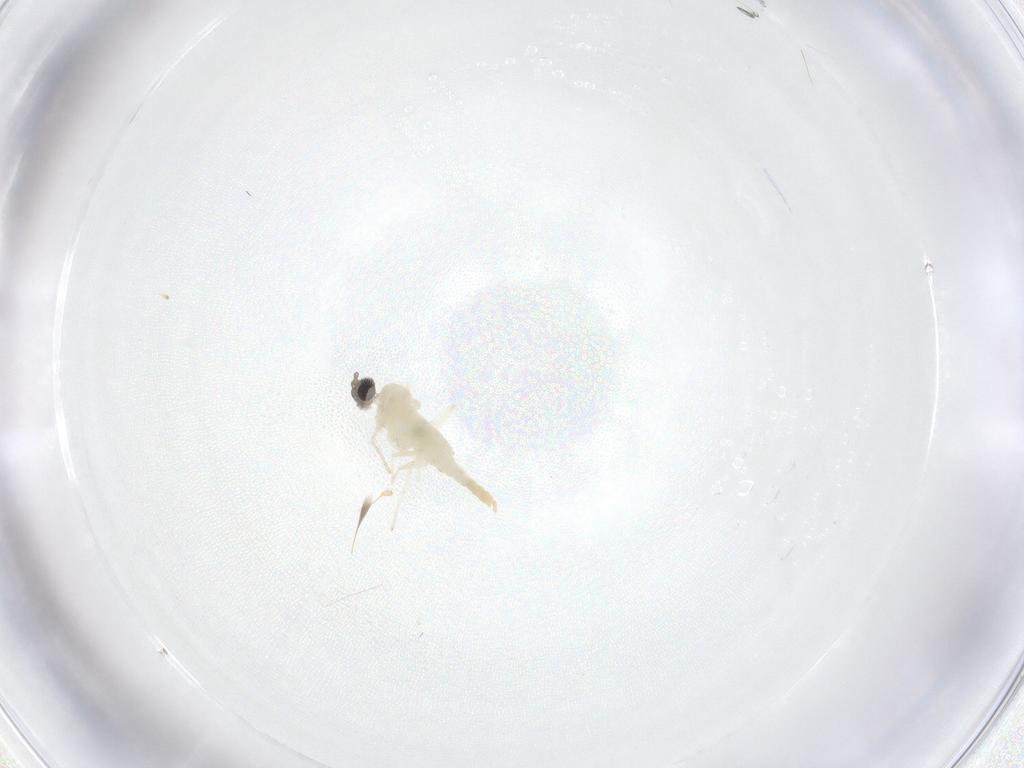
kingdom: Animalia
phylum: Arthropoda
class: Insecta
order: Diptera
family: Cecidomyiidae
